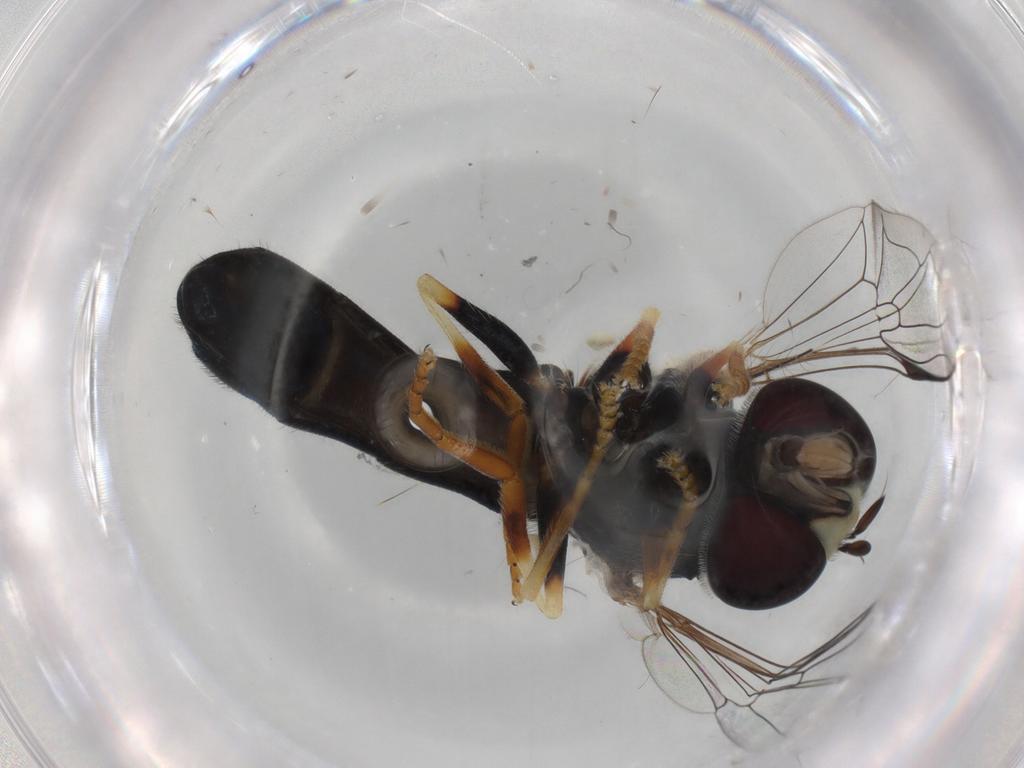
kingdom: Animalia
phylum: Arthropoda
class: Insecta
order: Diptera
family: Syrphidae
